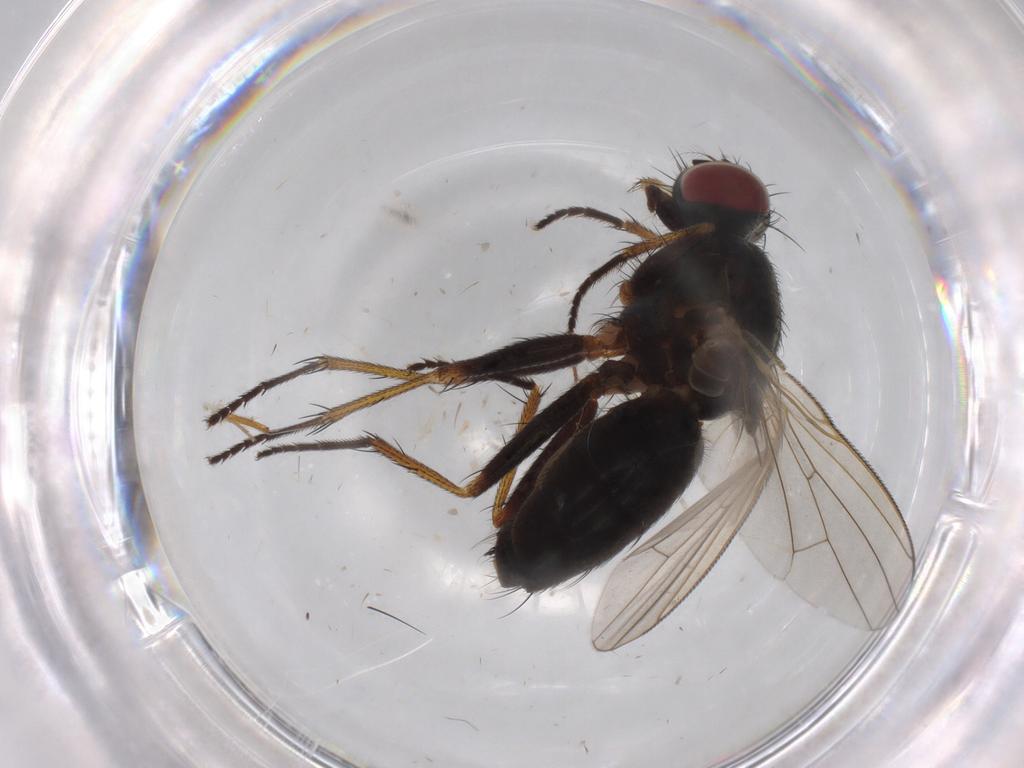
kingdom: Animalia
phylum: Arthropoda
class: Insecta
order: Diptera
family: Muscidae
